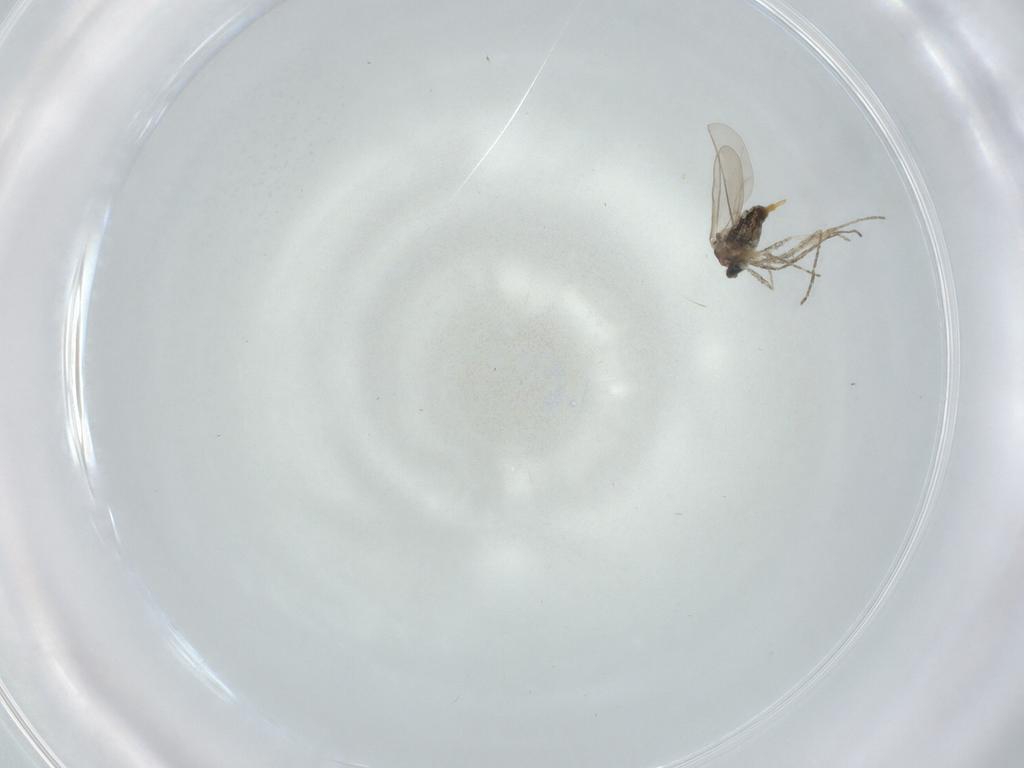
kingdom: Animalia
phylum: Arthropoda
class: Insecta
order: Diptera
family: Cecidomyiidae
